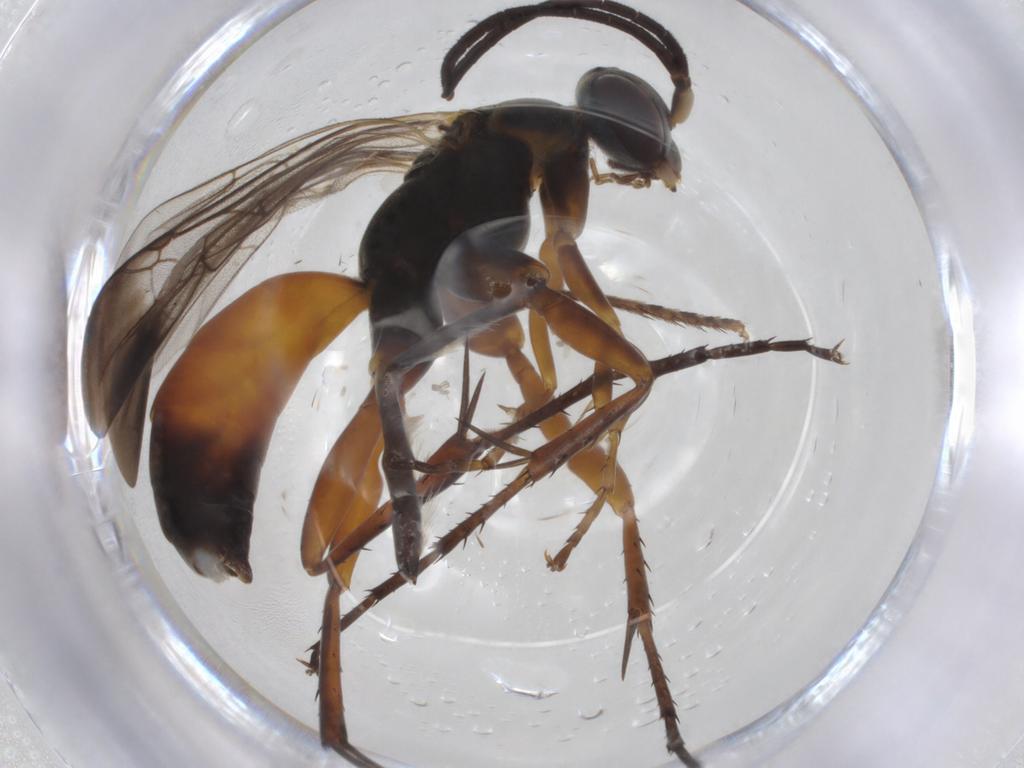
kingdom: Animalia
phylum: Arthropoda
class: Insecta
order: Hymenoptera
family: Pompilidae
